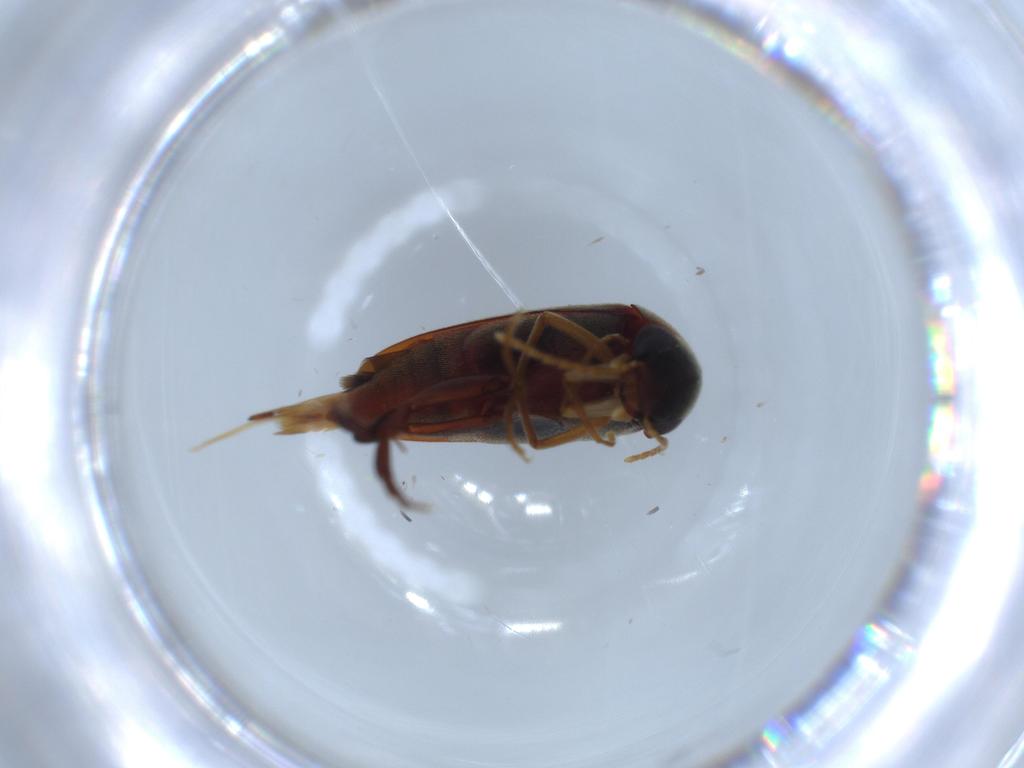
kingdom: Animalia
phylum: Arthropoda
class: Insecta
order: Coleoptera
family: Mordellidae
